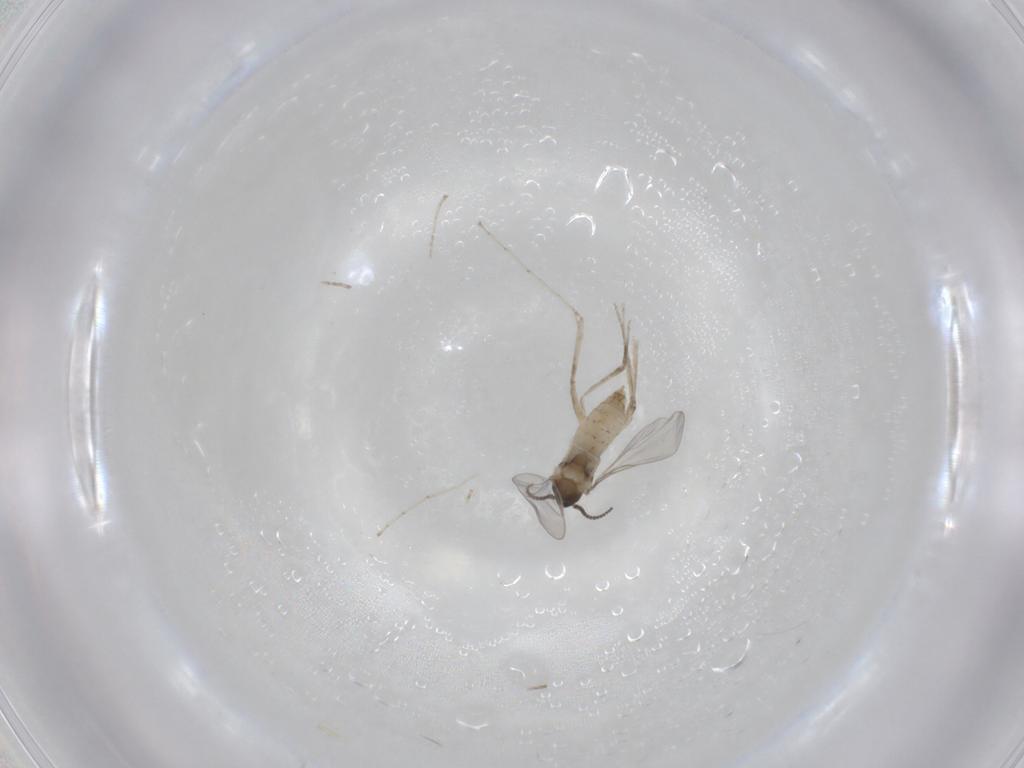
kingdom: Animalia
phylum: Arthropoda
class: Insecta
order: Diptera
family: Cecidomyiidae
